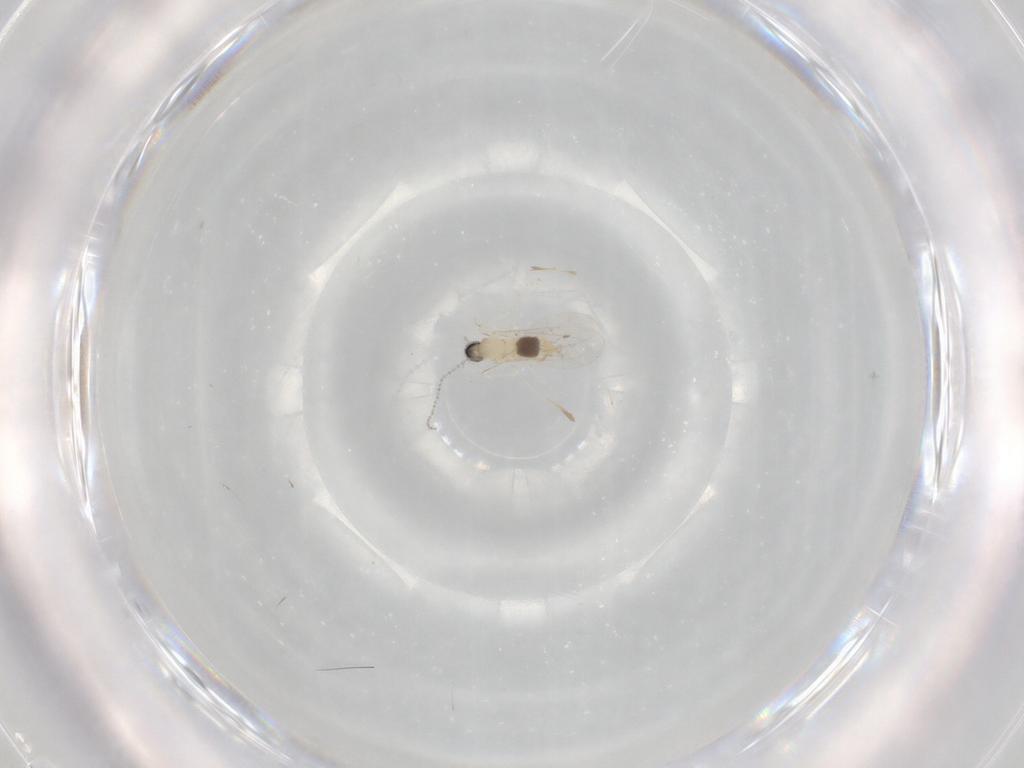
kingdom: Animalia
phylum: Arthropoda
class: Insecta
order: Diptera
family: Cecidomyiidae
